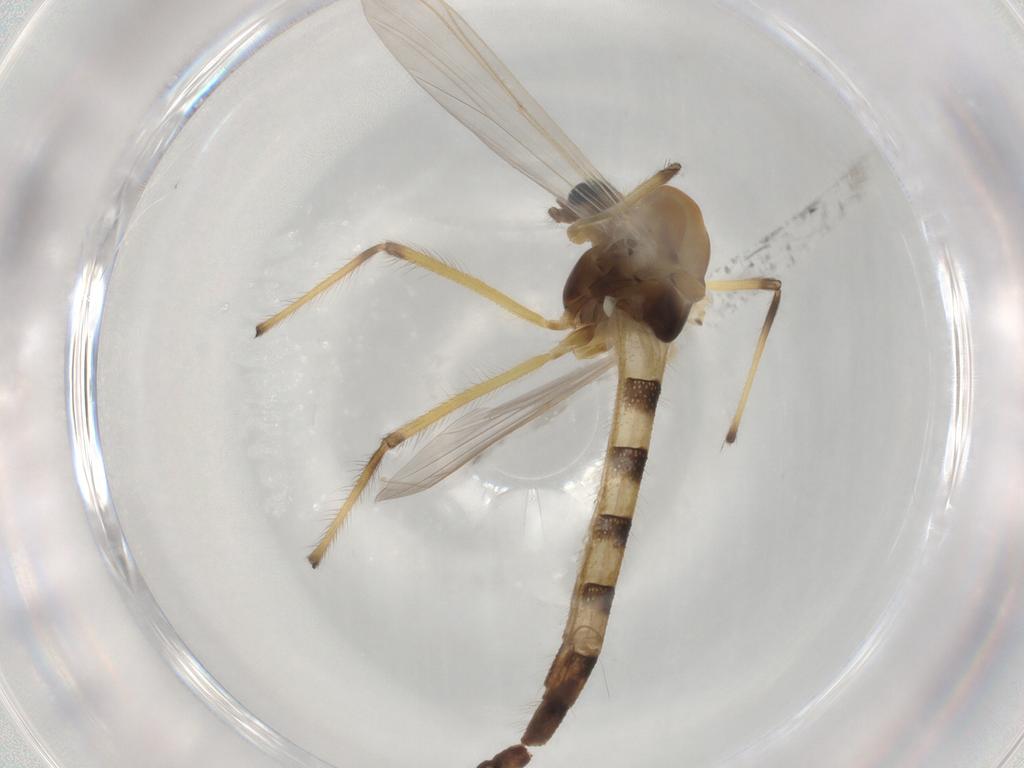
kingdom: Animalia
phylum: Arthropoda
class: Insecta
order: Diptera
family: Chironomidae
